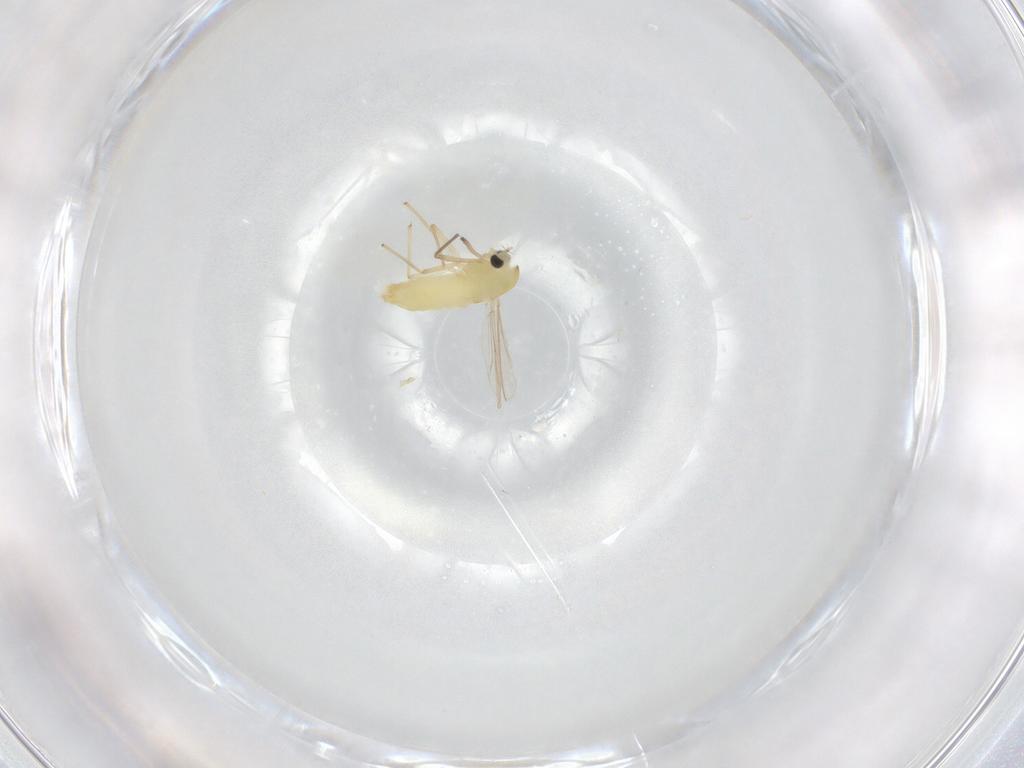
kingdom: Animalia
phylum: Arthropoda
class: Insecta
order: Diptera
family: Chironomidae
